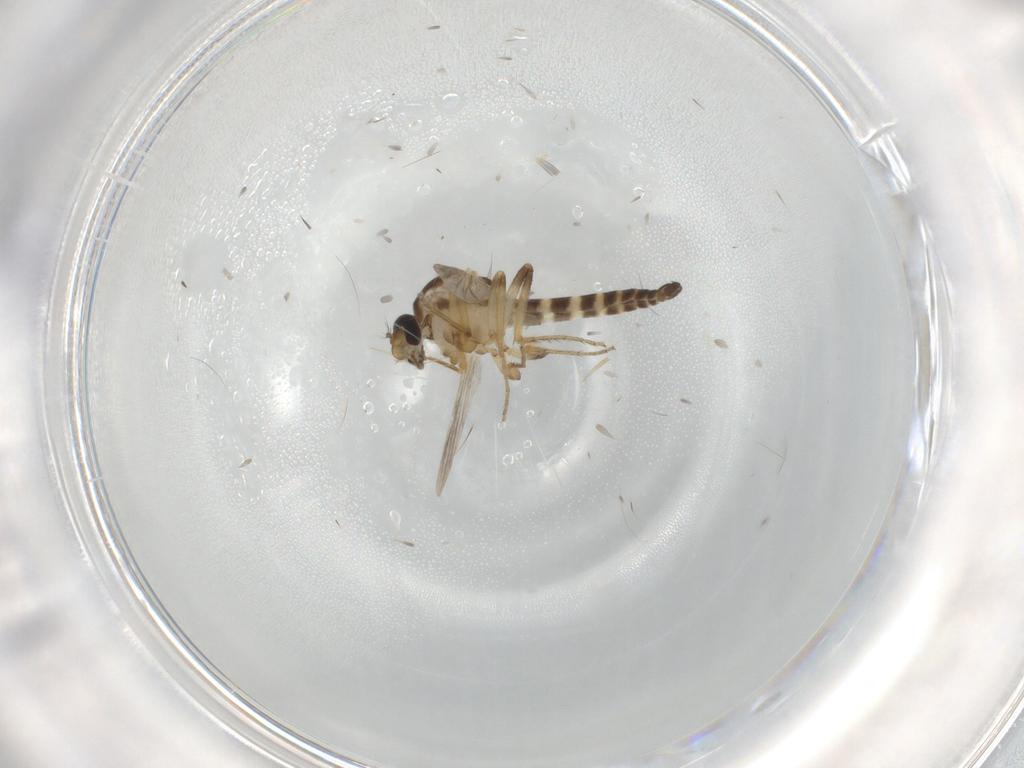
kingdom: Animalia
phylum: Arthropoda
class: Insecta
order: Diptera
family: Ceratopogonidae
